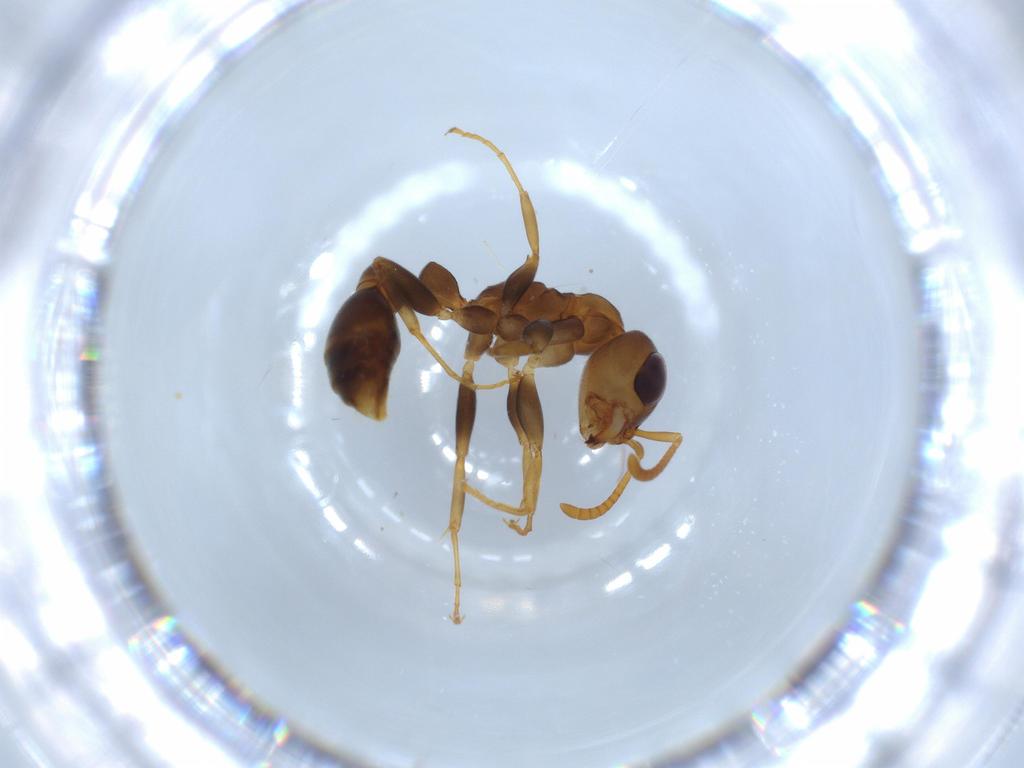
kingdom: Animalia
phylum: Arthropoda
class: Insecta
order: Hymenoptera
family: Formicidae
